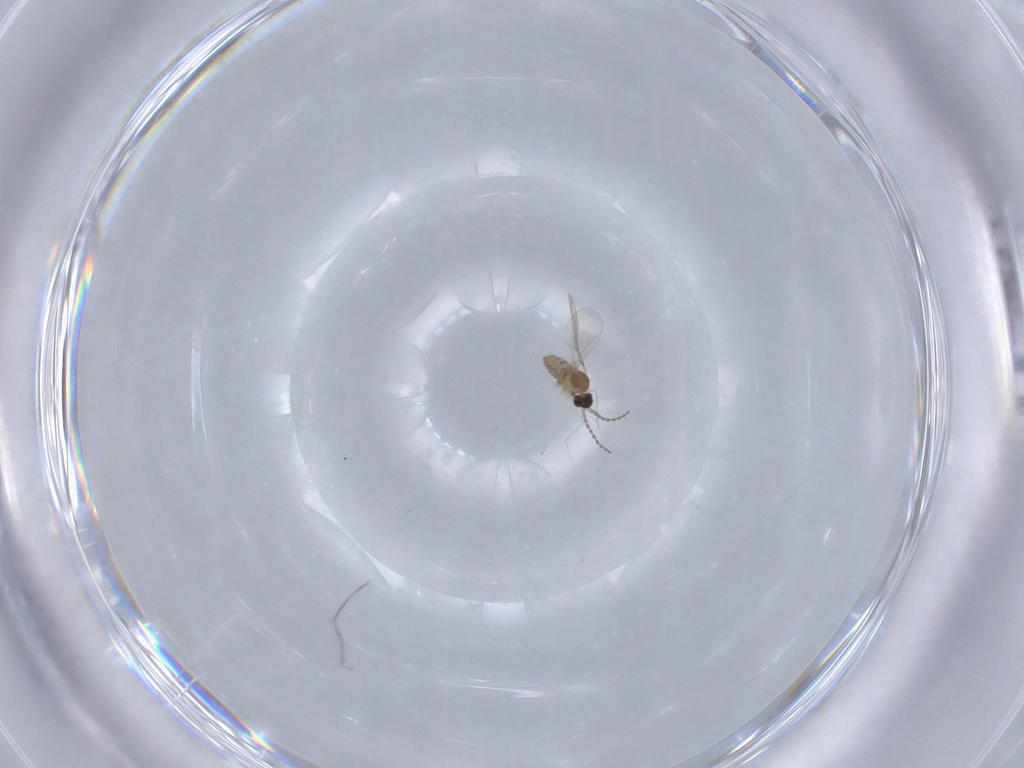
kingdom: Animalia
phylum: Arthropoda
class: Insecta
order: Diptera
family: Cecidomyiidae
